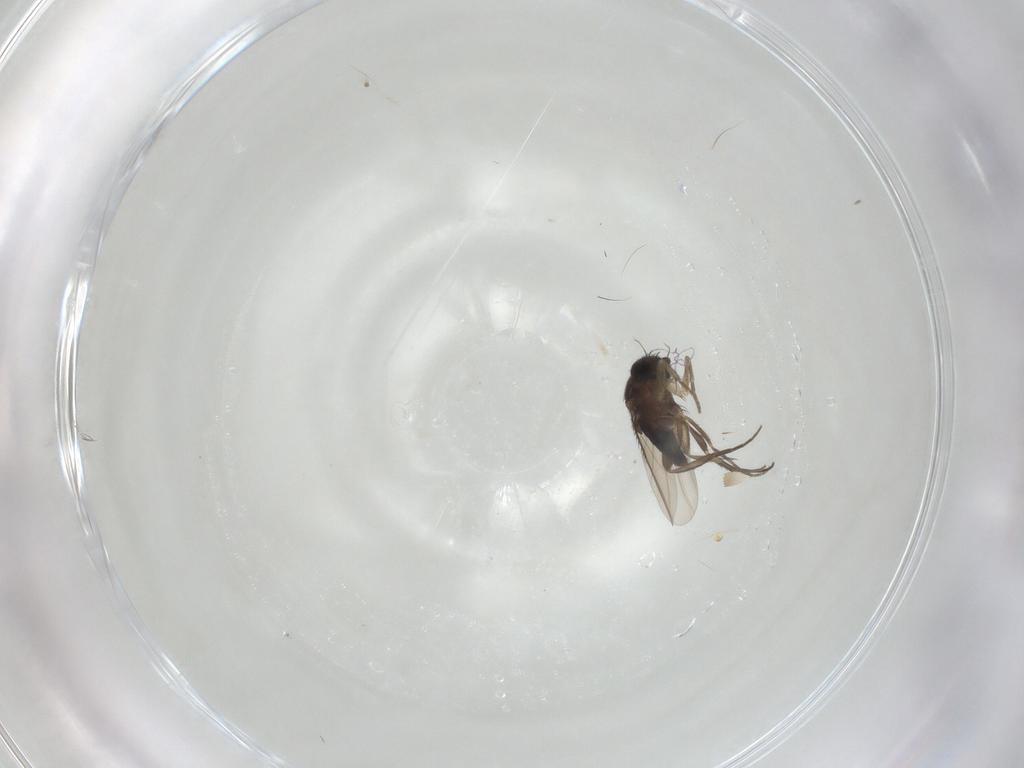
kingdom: Animalia
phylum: Arthropoda
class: Insecta
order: Diptera
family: Phoridae
